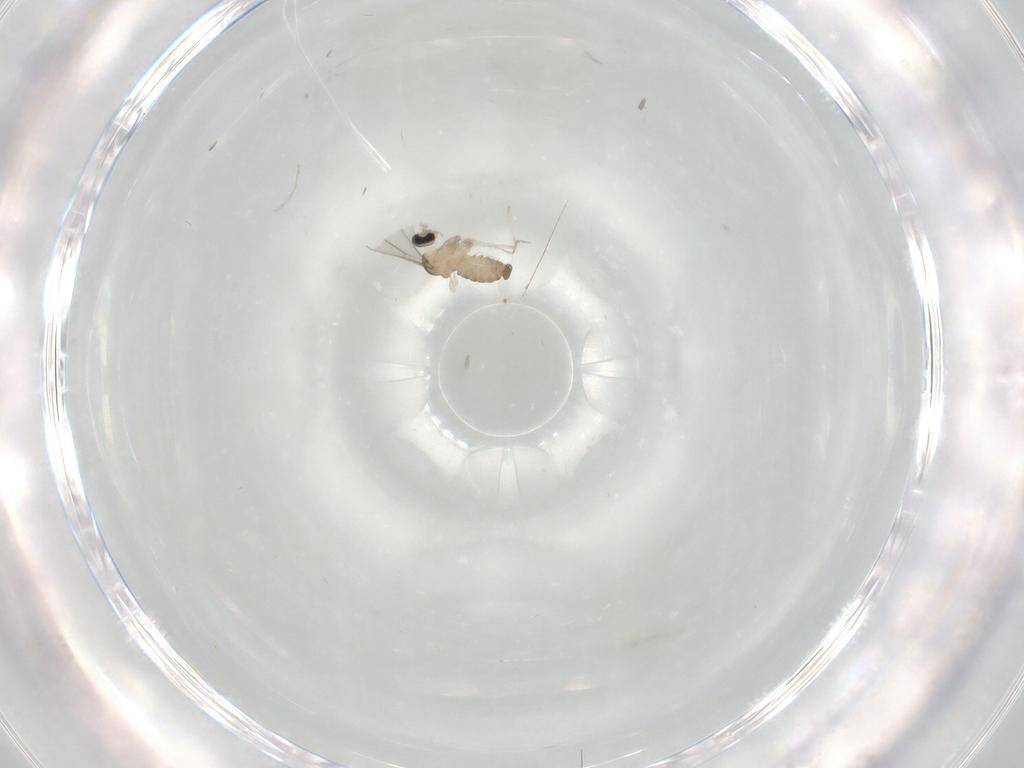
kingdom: Animalia
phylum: Arthropoda
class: Insecta
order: Diptera
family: Cecidomyiidae
